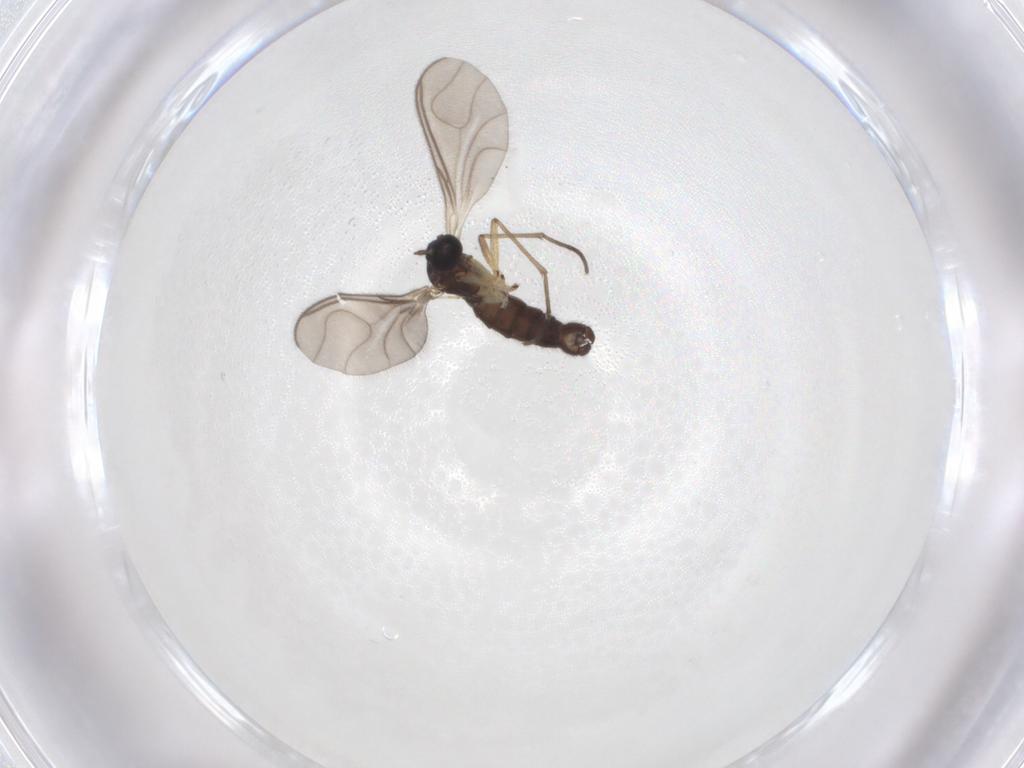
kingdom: Animalia
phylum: Arthropoda
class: Insecta
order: Diptera
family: Sciaridae
